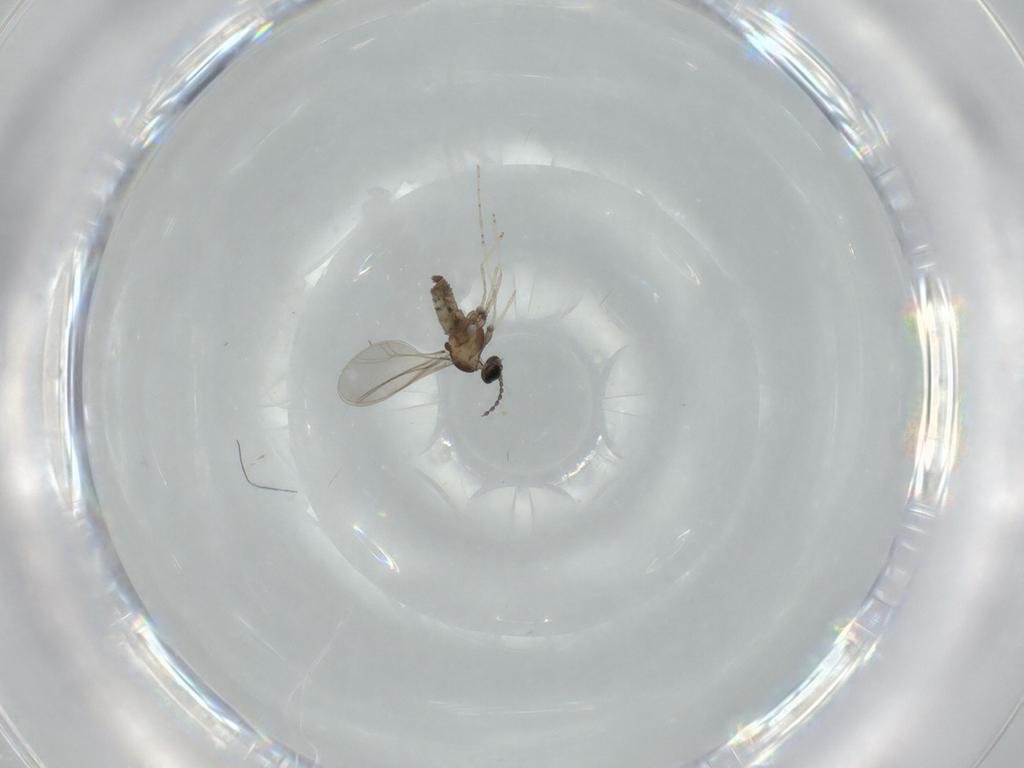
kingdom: Animalia
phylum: Arthropoda
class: Insecta
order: Diptera
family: Cecidomyiidae
